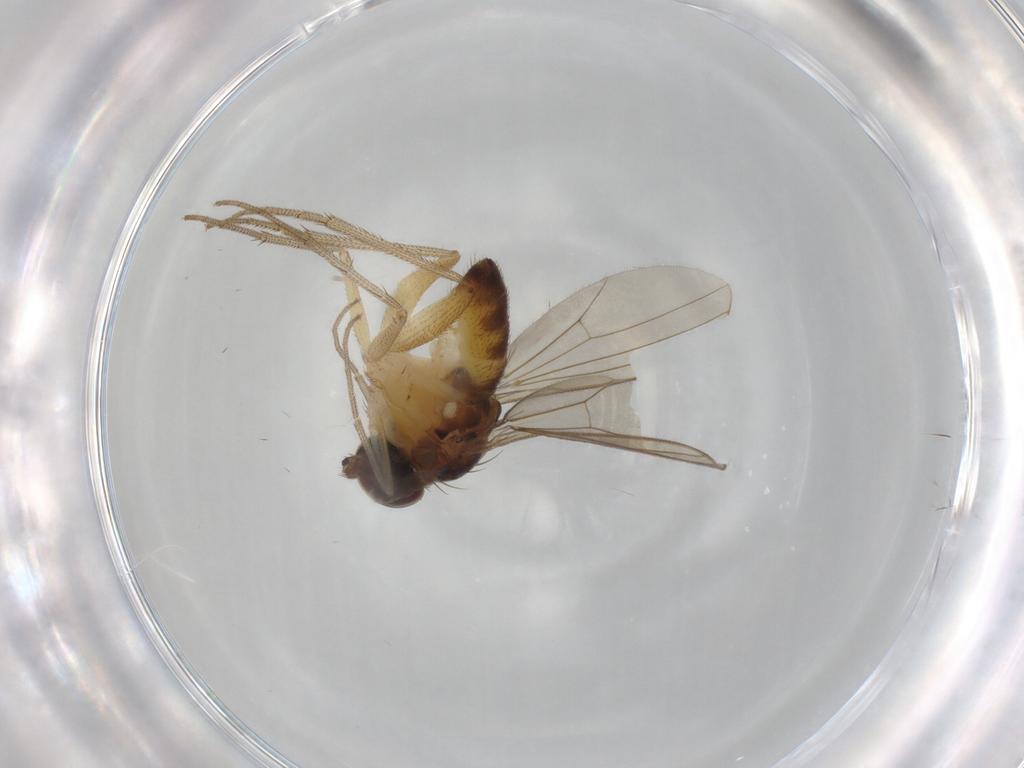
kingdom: Animalia
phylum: Arthropoda
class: Insecta
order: Diptera
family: Dolichopodidae
